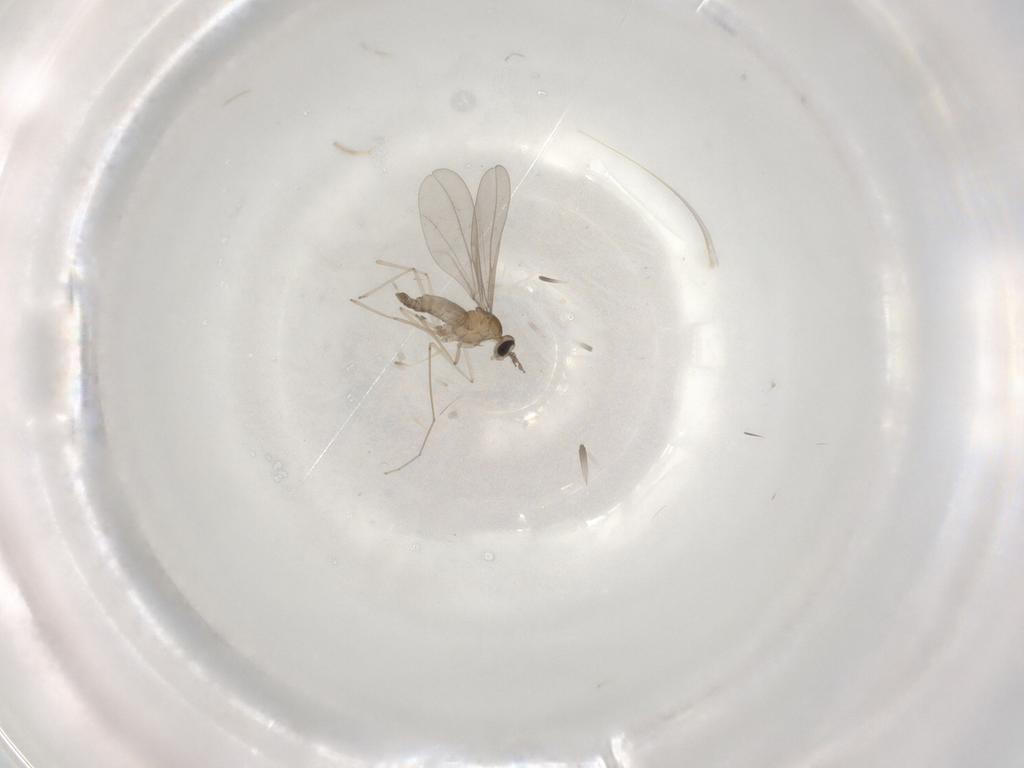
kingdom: Animalia
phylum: Arthropoda
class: Insecta
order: Diptera
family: Cecidomyiidae
